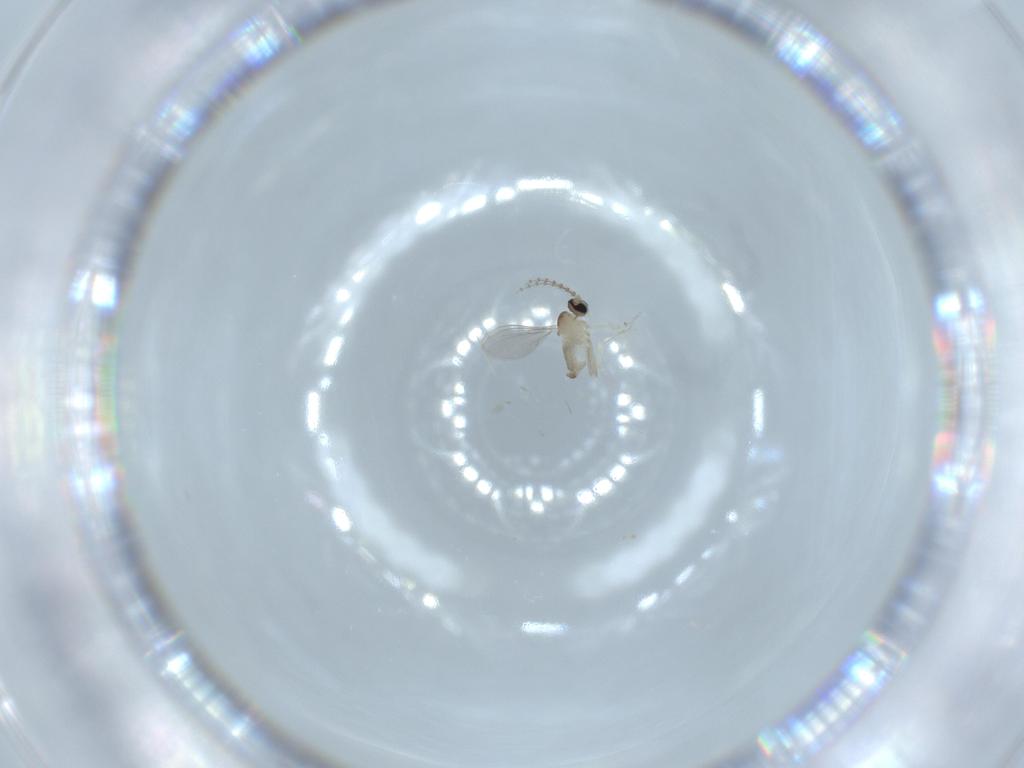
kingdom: Animalia
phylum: Arthropoda
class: Insecta
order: Diptera
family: Cecidomyiidae
